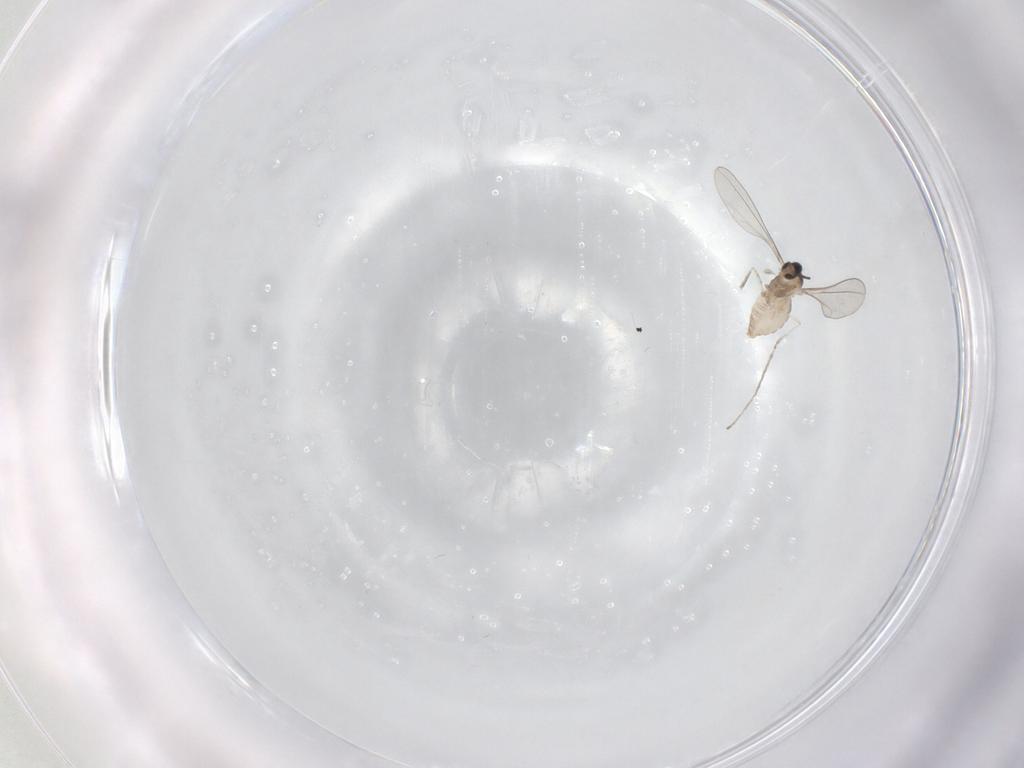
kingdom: Animalia
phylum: Arthropoda
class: Insecta
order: Diptera
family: Cecidomyiidae
